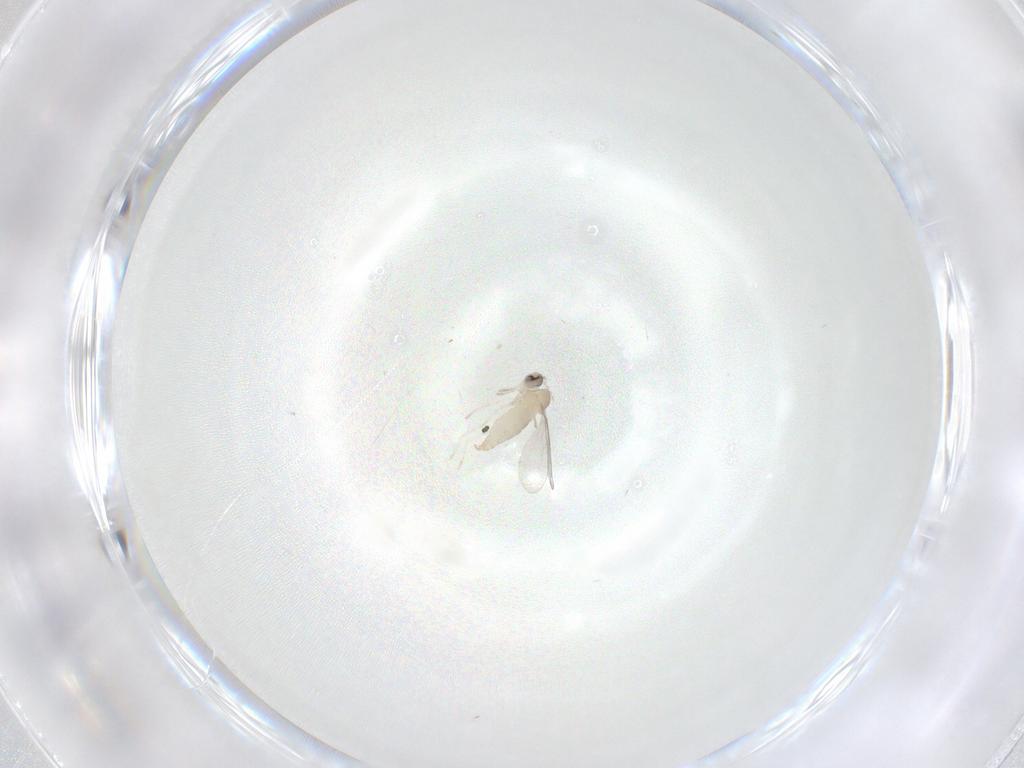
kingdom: Animalia
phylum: Arthropoda
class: Insecta
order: Diptera
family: Cecidomyiidae
